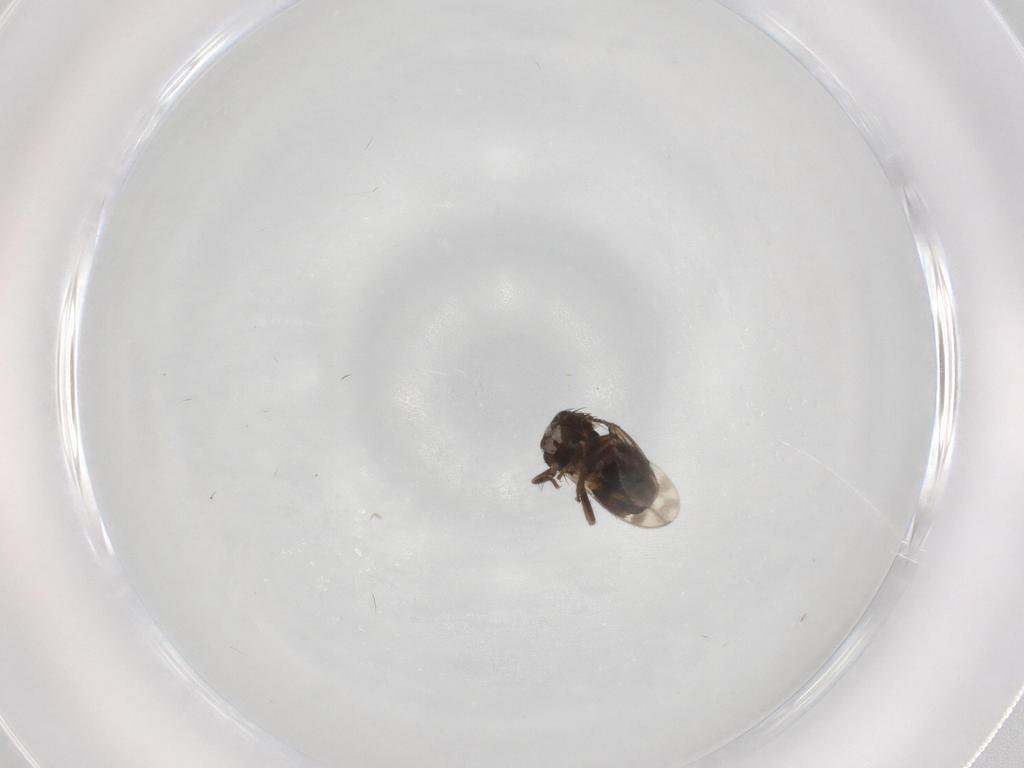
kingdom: Animalia
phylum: Arthropoda
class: Insecta
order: Diptera
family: Sphaeroceridae
